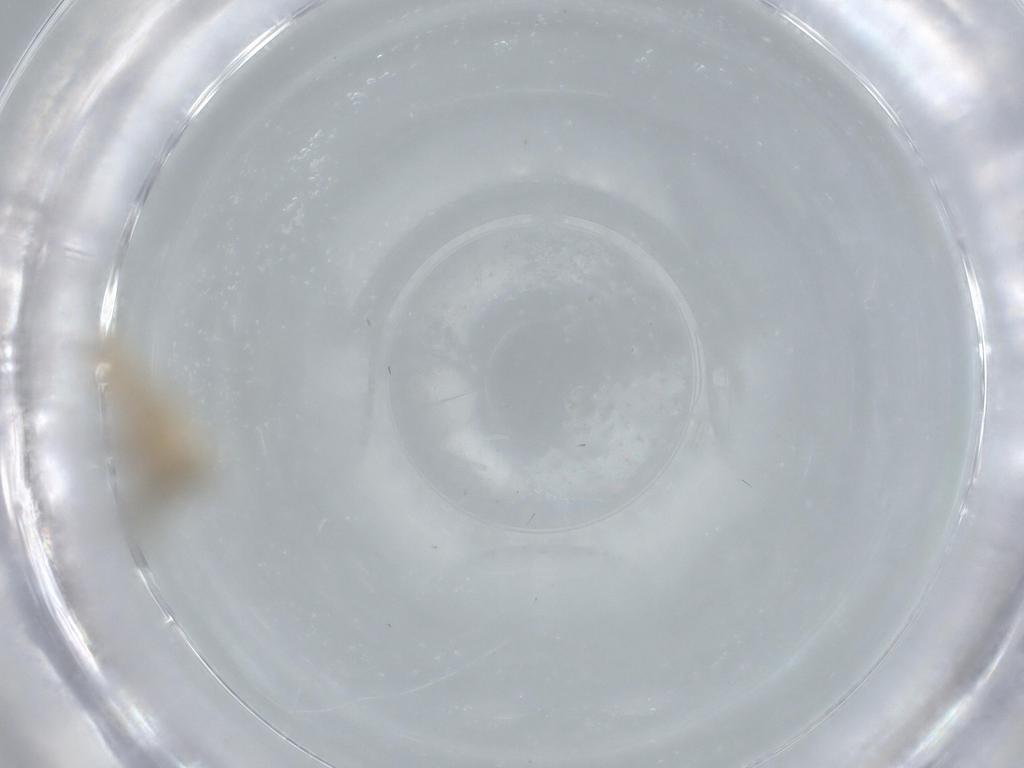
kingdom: Animalia
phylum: Arthropoda
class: Insecta
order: Lepidoptera
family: Bucculatricidae
